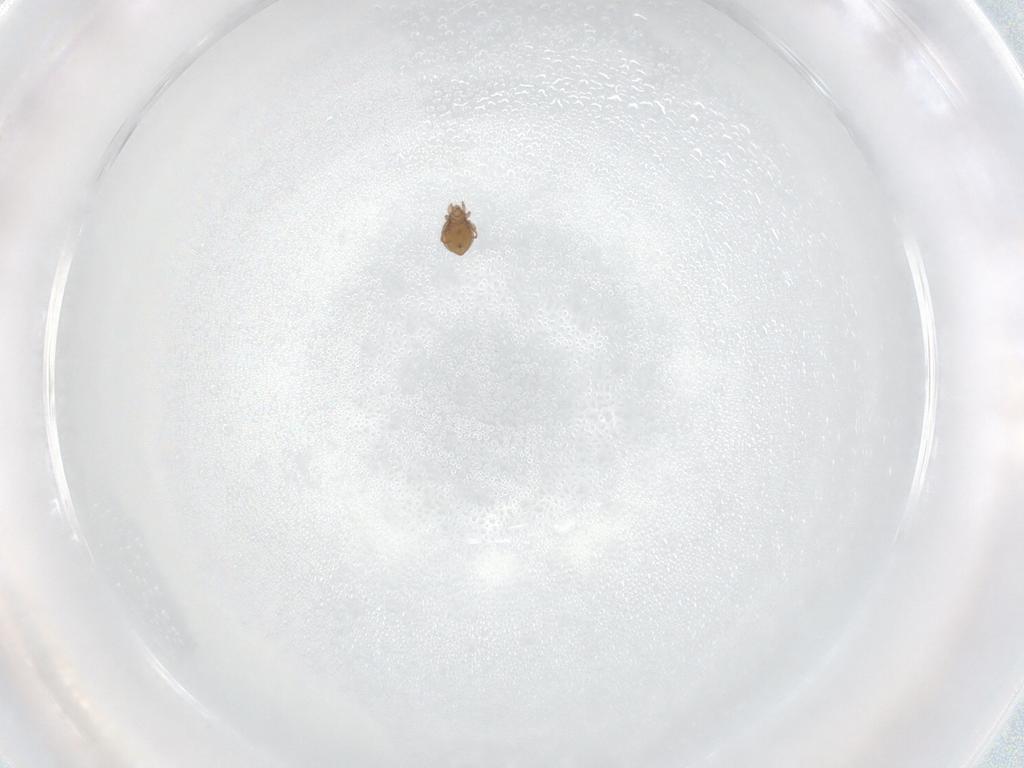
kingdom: Animalia
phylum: Arthropoda
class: Arachnida
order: Sarcoptiformes
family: Oribatulidae
